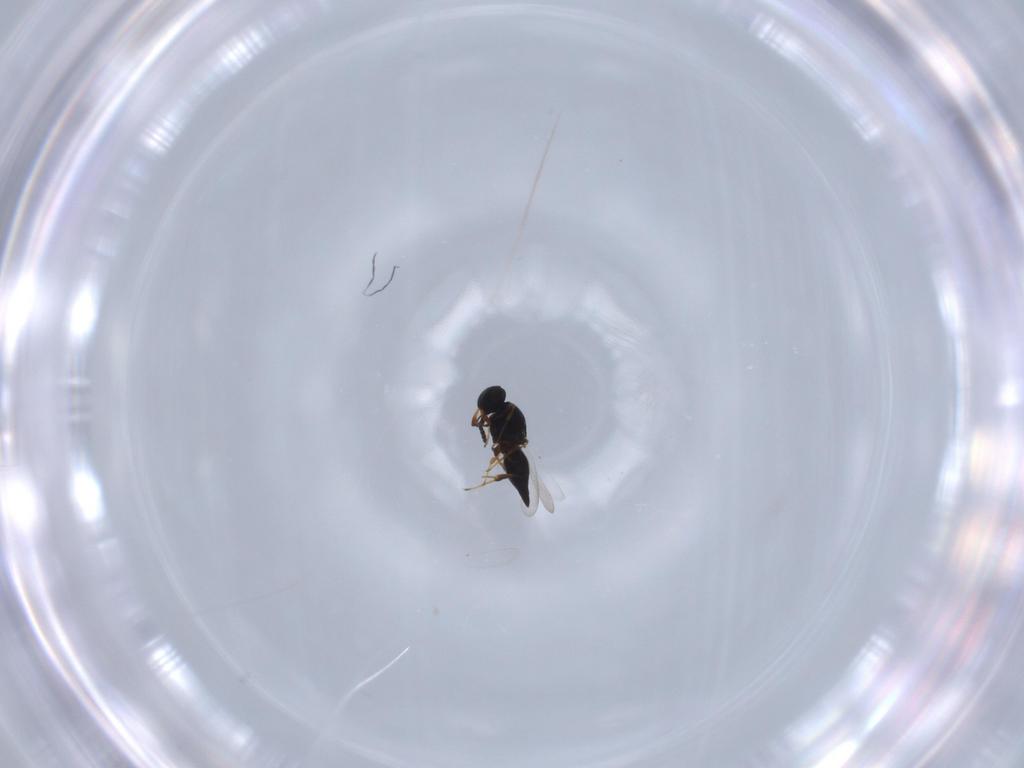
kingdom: Animalia
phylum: Arthropoda
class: Insecta
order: Hymenoptera
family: Platygastridae
